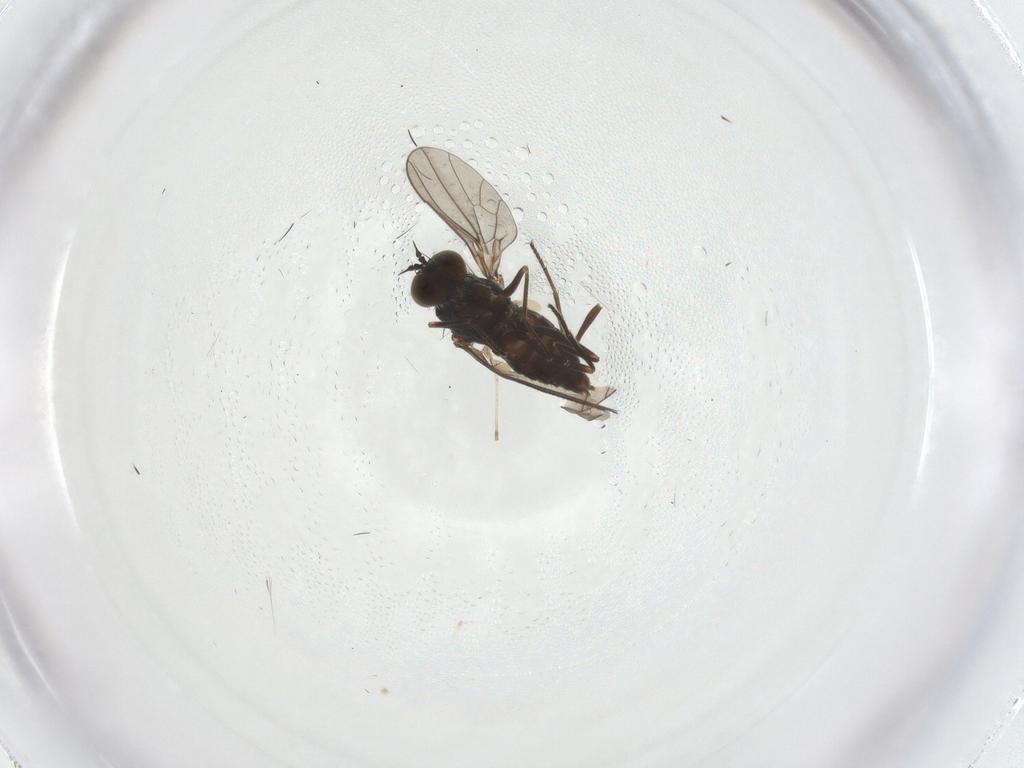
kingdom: Animalia
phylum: Arthropoda
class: Insecta
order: Diptera
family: Dolichopodidae
